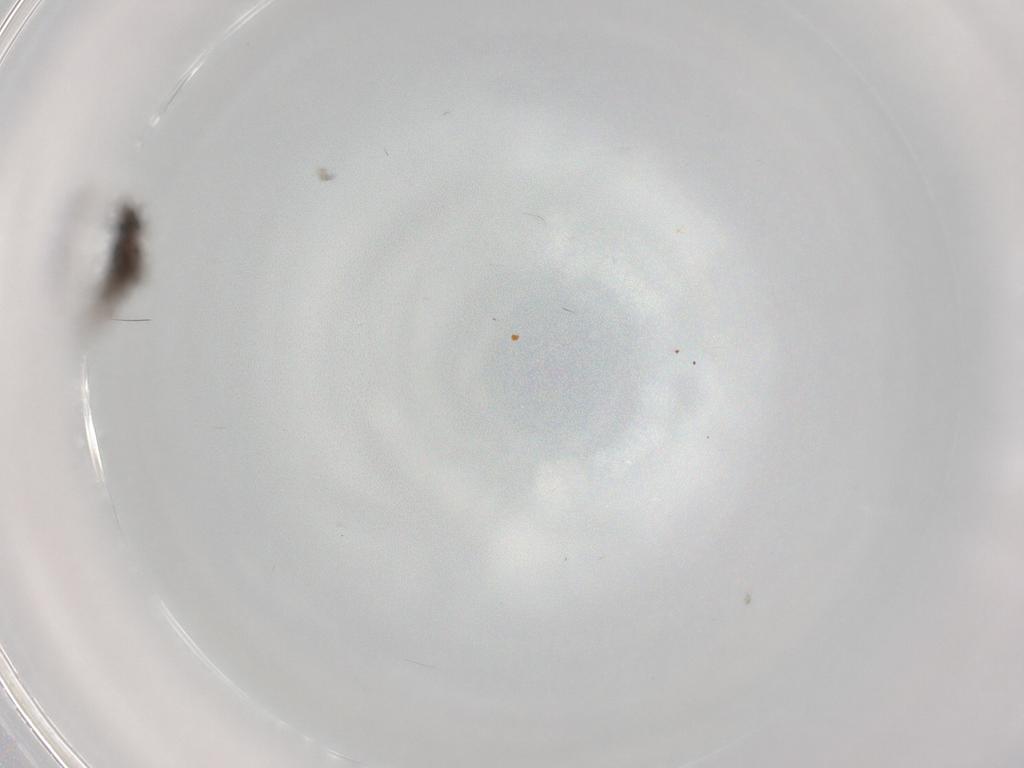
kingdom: Animalia
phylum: Arthropoda
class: Insecta
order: Diptera
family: Phoridae
